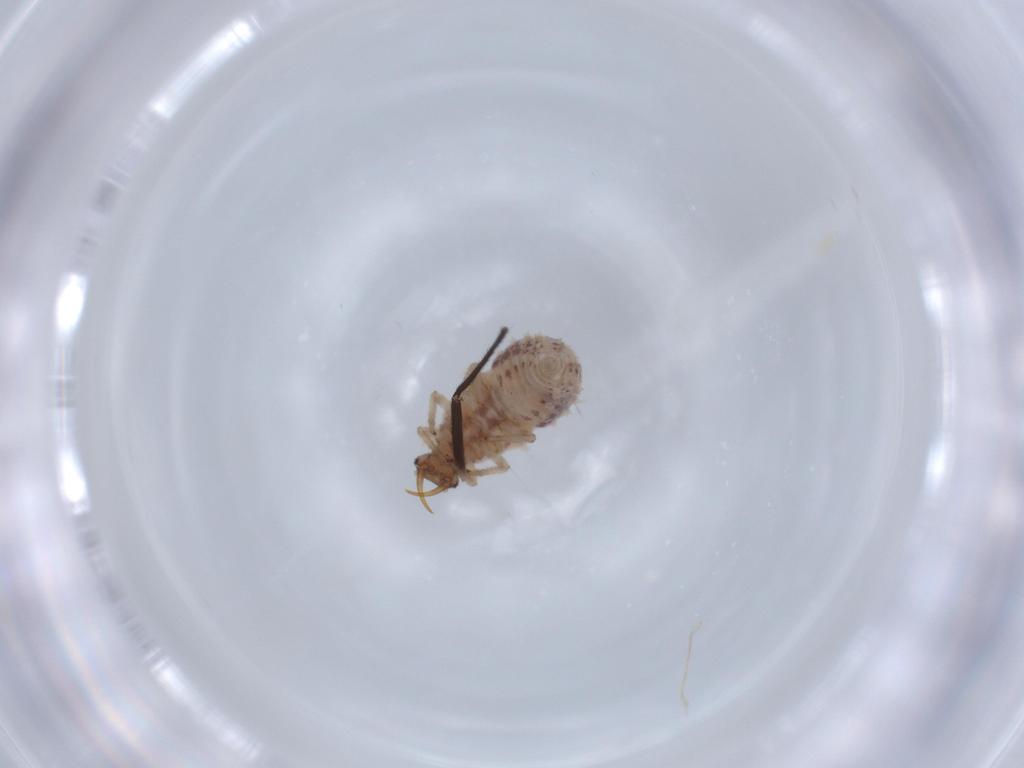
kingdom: Animalia
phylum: Arthropoda
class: Insecta
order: Neuroptera
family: Chrysopidae
